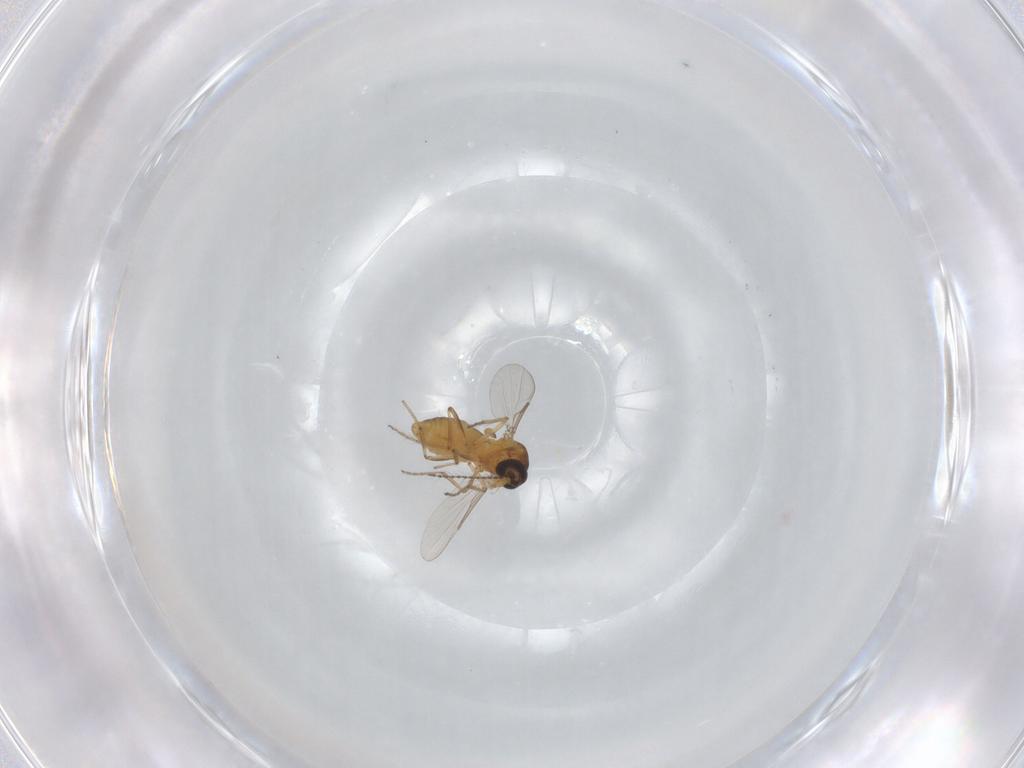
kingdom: Animalia
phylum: Arthropoda
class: Insecta
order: Diptera
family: Ceratopogonidae
